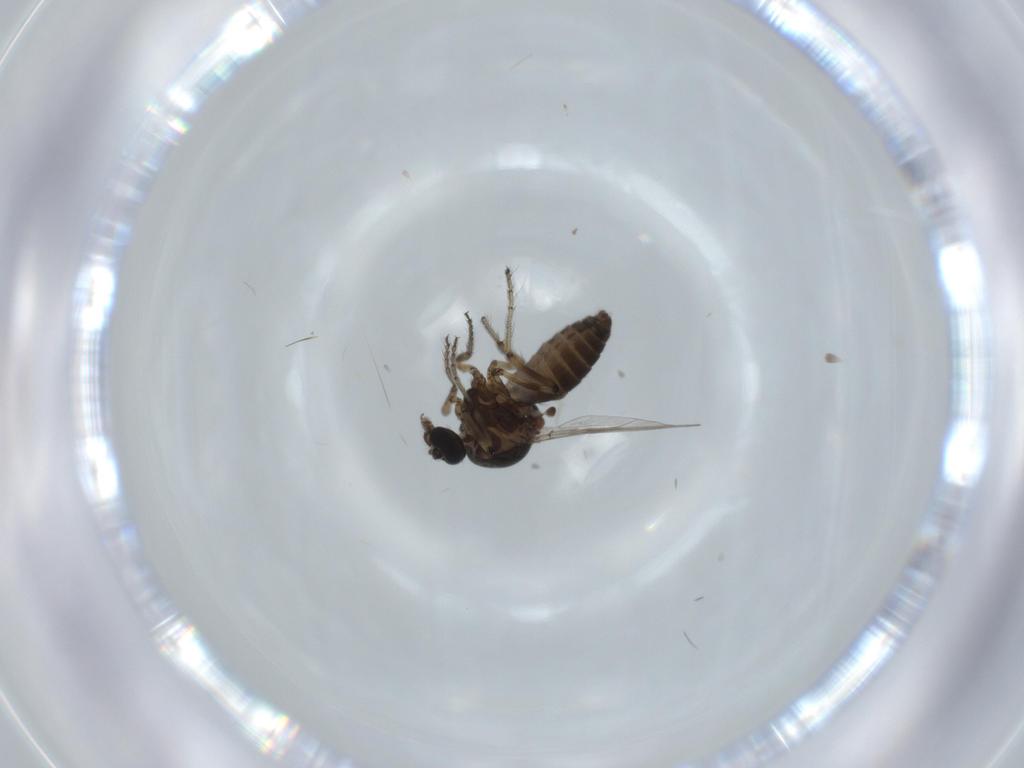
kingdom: Animalia
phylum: Arthropoda
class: Insecta
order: Diptera
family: Ceratopogonidae
